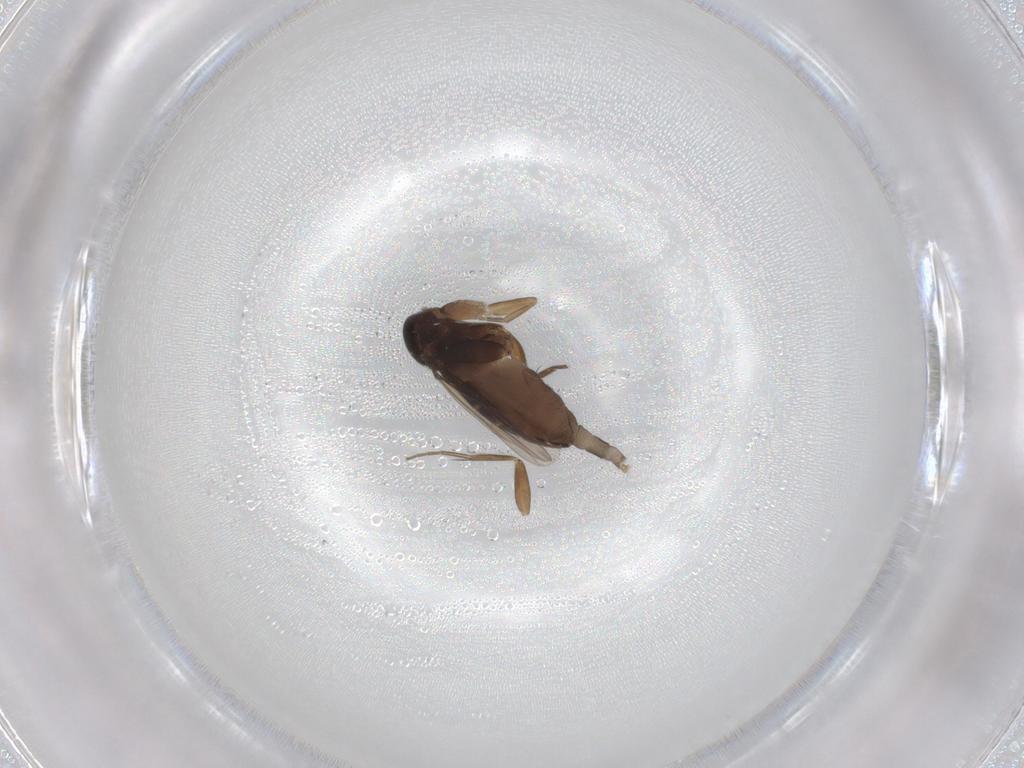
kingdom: Animalia
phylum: Arthropoda
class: Insecta
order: Diptera
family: Phoridae
